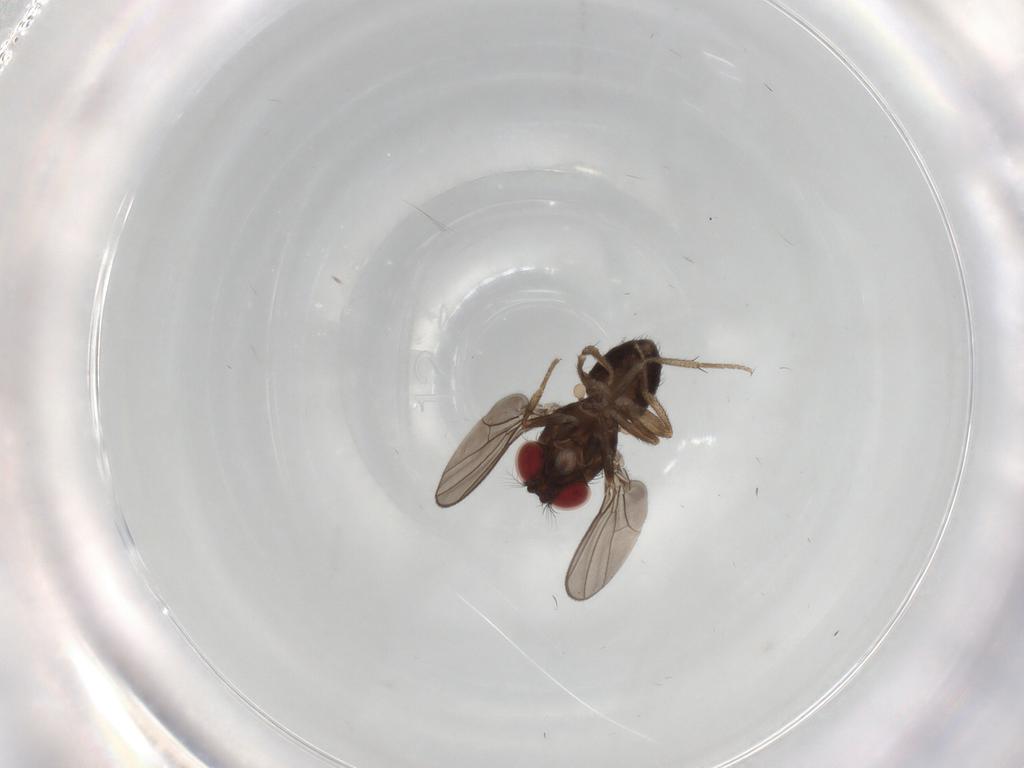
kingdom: Animalia
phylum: Arthropoda
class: Insecta
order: Diptera
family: Drosophilidae
